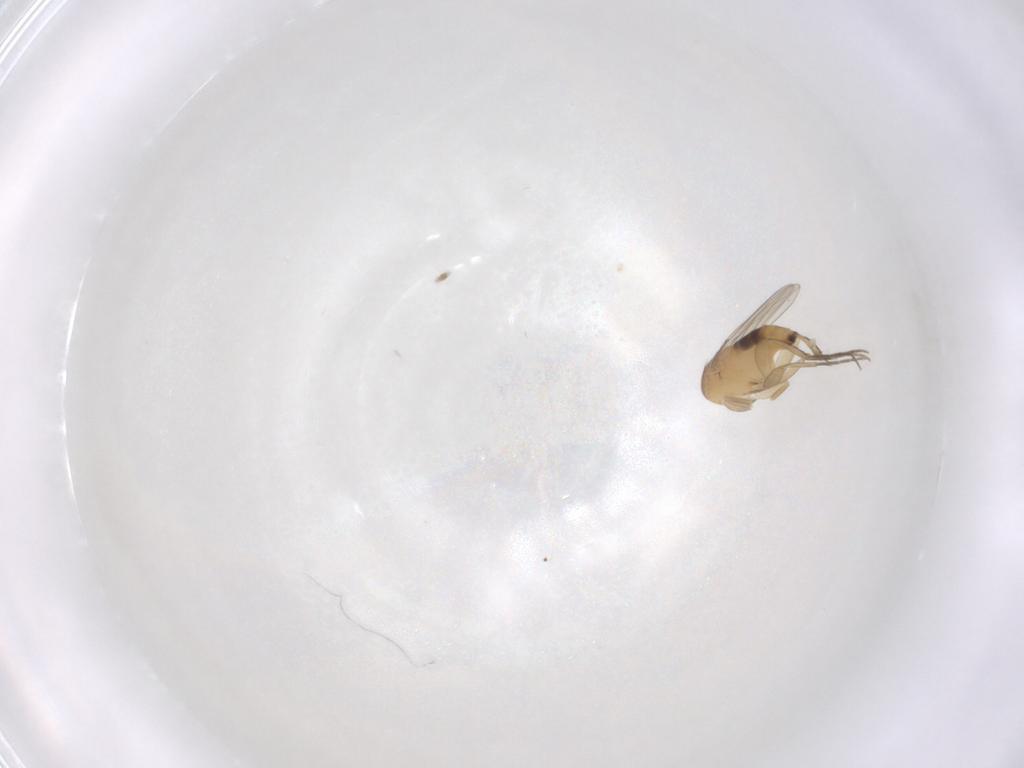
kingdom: Animalia
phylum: Arthropoda
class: Insecta
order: Diptera
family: Phoridae
